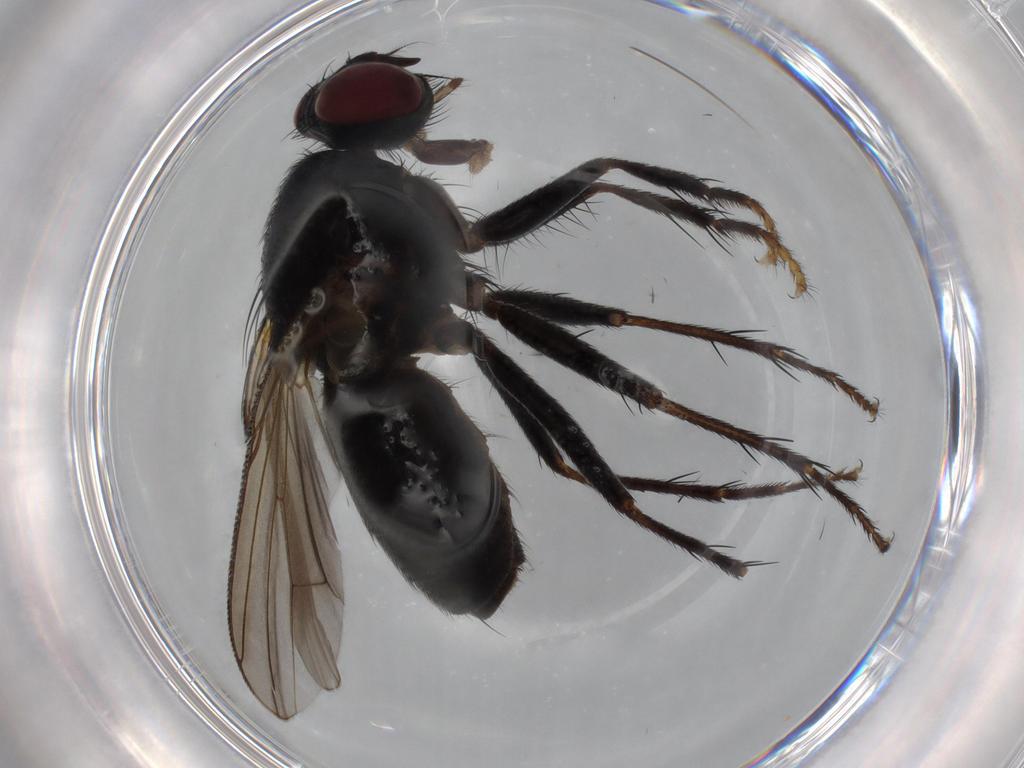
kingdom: Animalia
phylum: Arthropoda
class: Insecta
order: Diptera
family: Muscidae
